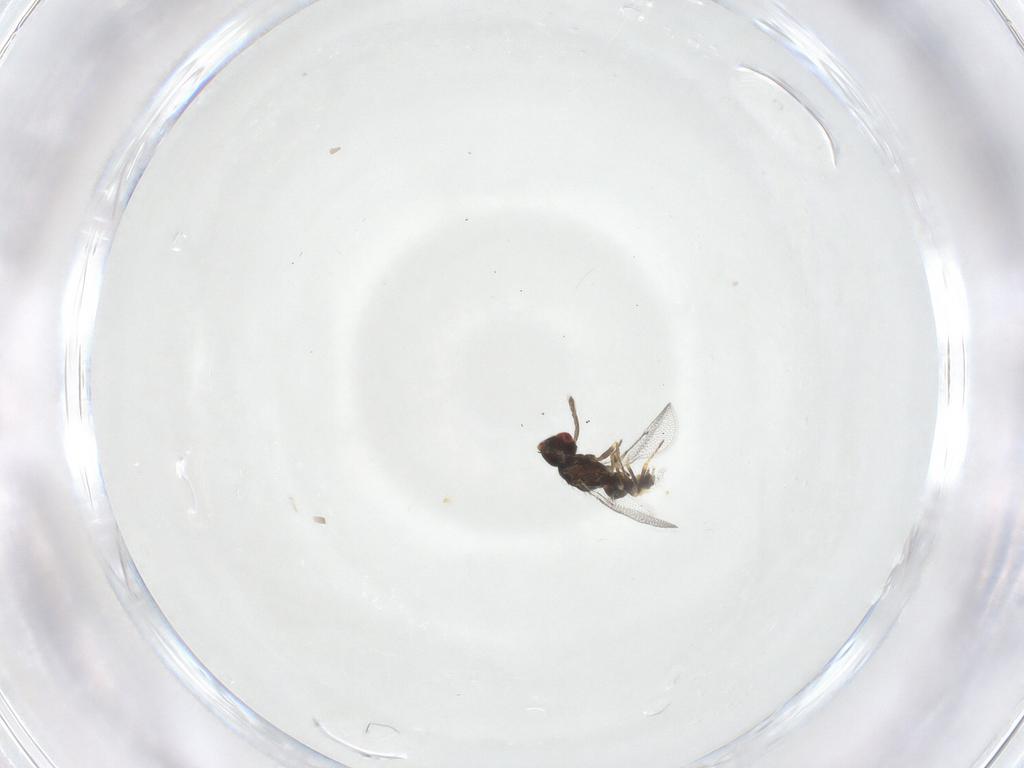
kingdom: Animalia
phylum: Arthropoda
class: Insecta
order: Hymenoptera
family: Eulophidae
